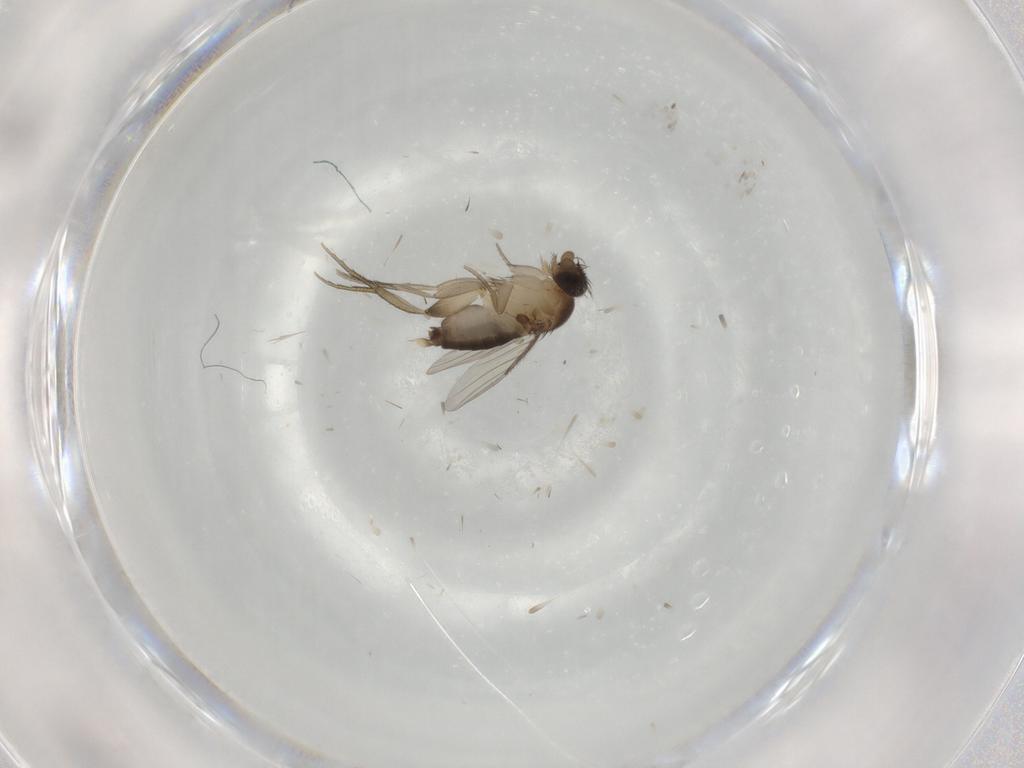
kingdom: Animalia
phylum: Arthropoda
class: Insecta
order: Diptera
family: Phoridae
